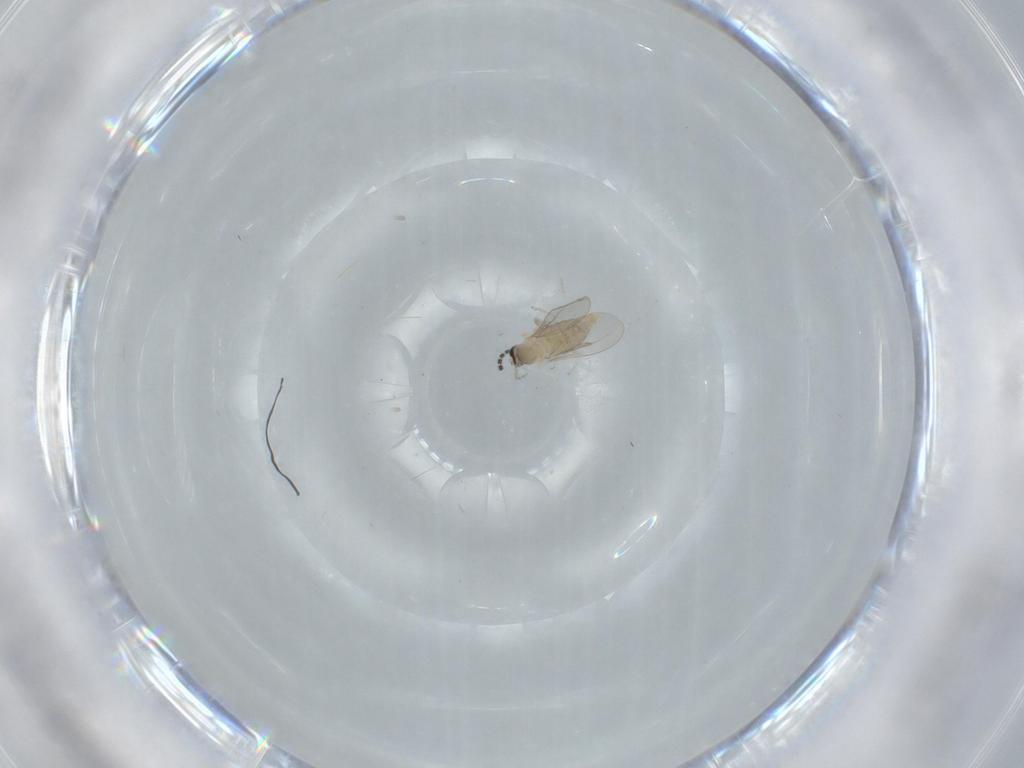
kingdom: Animalia
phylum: Arthropoda
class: Insecta
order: Diptera
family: Cecidomyiidae
